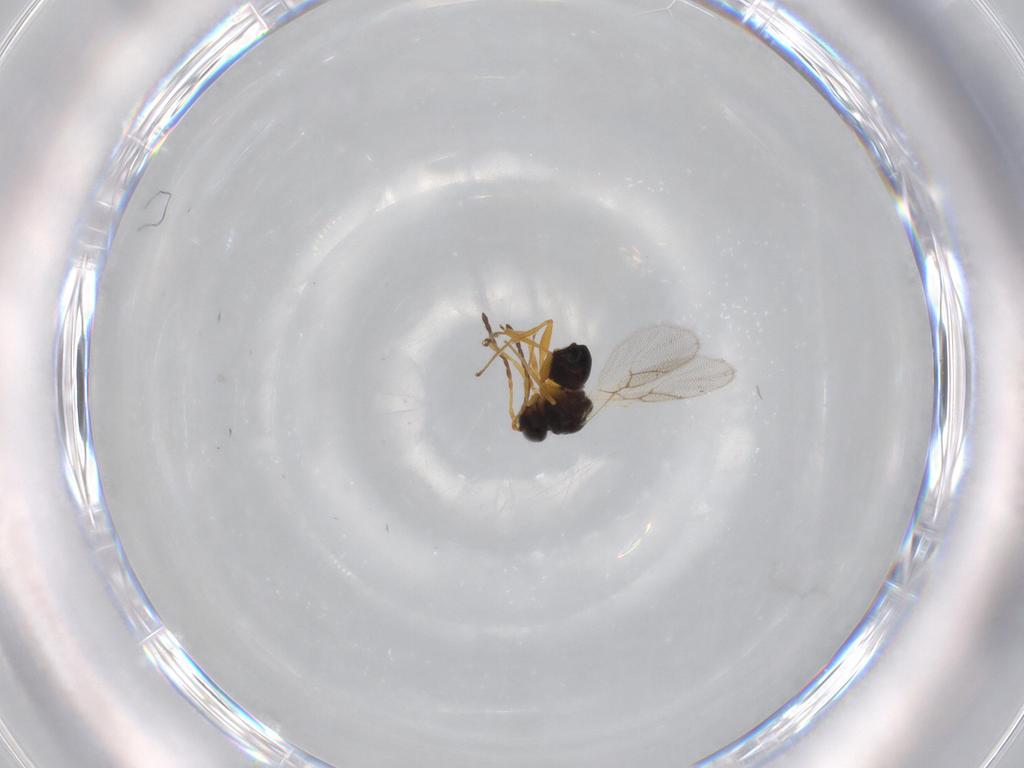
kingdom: Animalia
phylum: Arthropoda
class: Insecta
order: Hymenoptera
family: Figitidae
